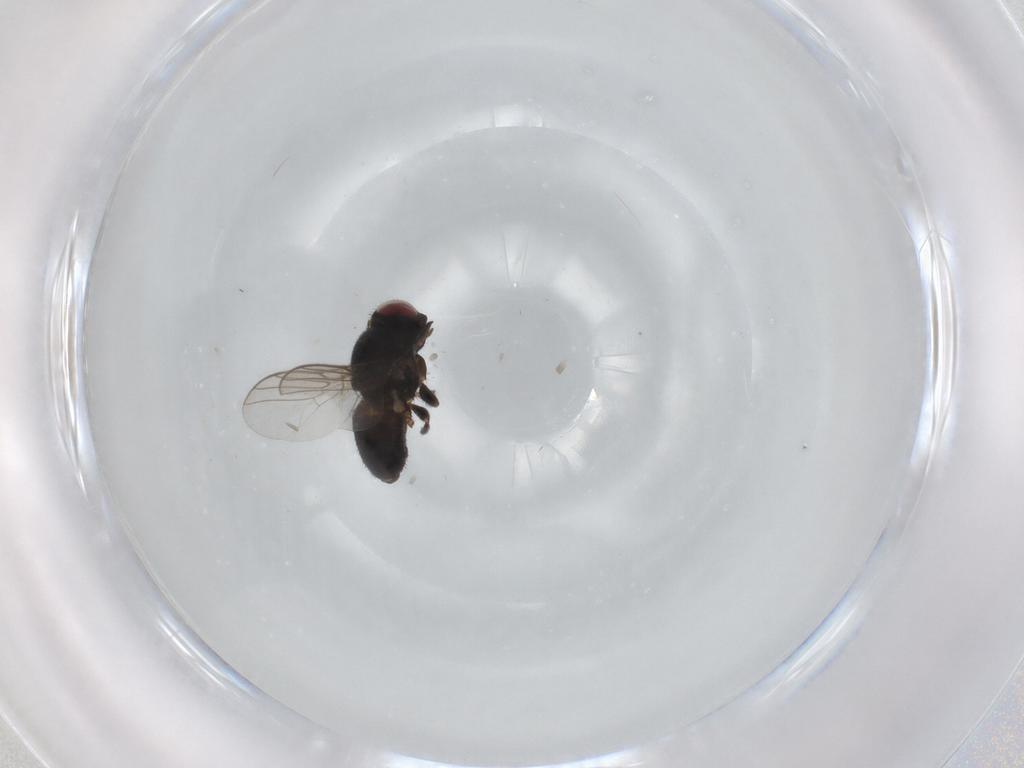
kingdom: Animalia
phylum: Arthropoda
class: Insecta
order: Diptera
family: Chloropidae
